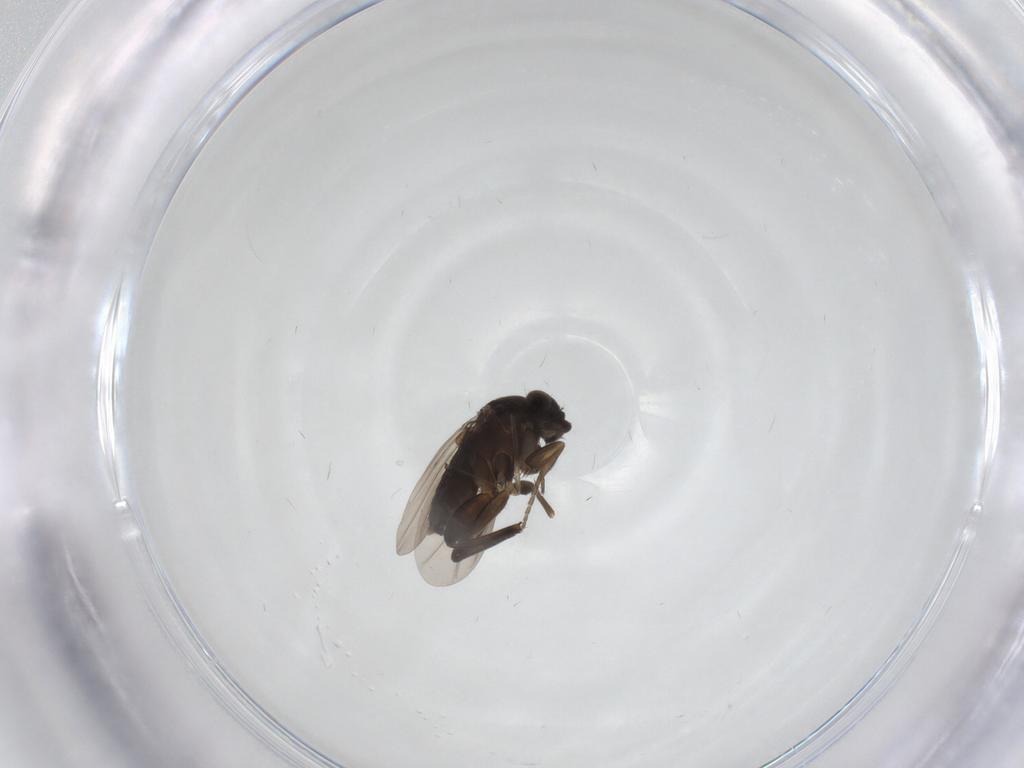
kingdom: Animalia
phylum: Arthropoda
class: Insecta
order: Diptera
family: Phoridae
